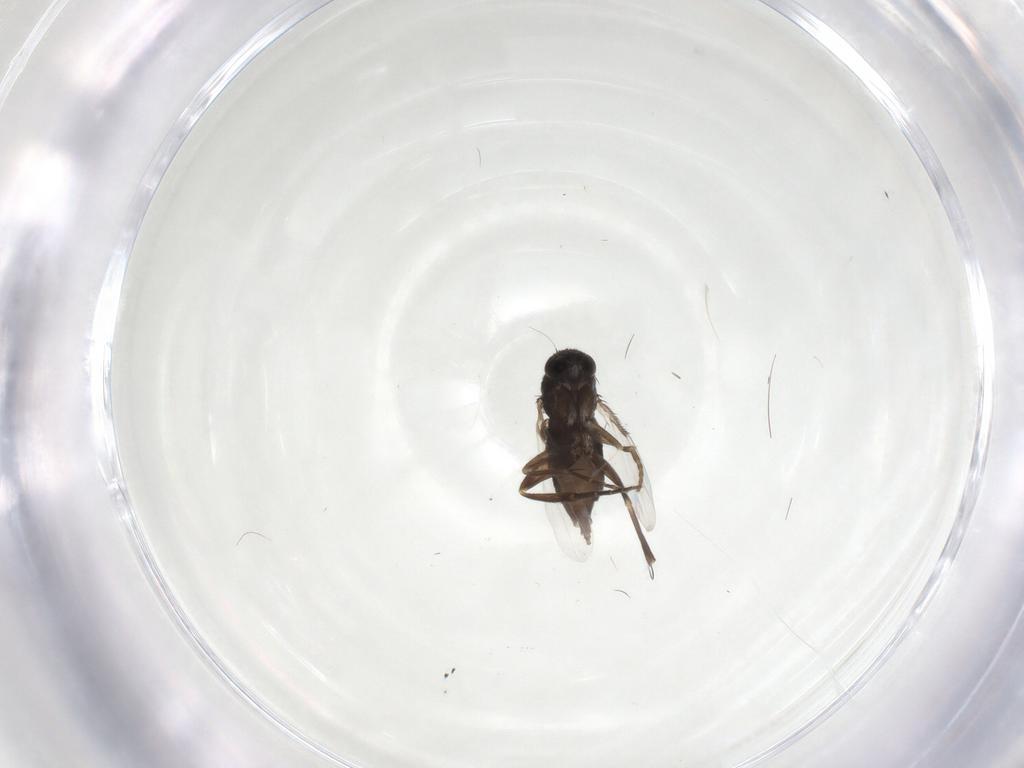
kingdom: Animalia
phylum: Arthropoda
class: Insecta
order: Diptera
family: Phoridae
